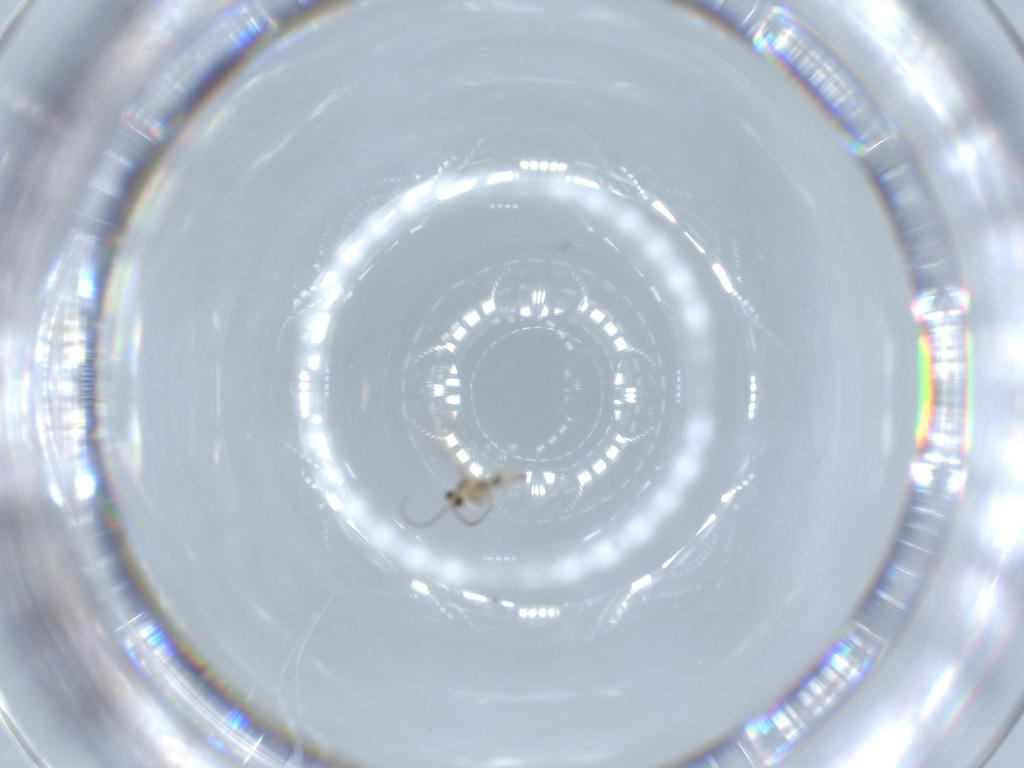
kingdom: Animalia
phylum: Arthropoda
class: Insecta
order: Diptera
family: Cecidomyiidae
